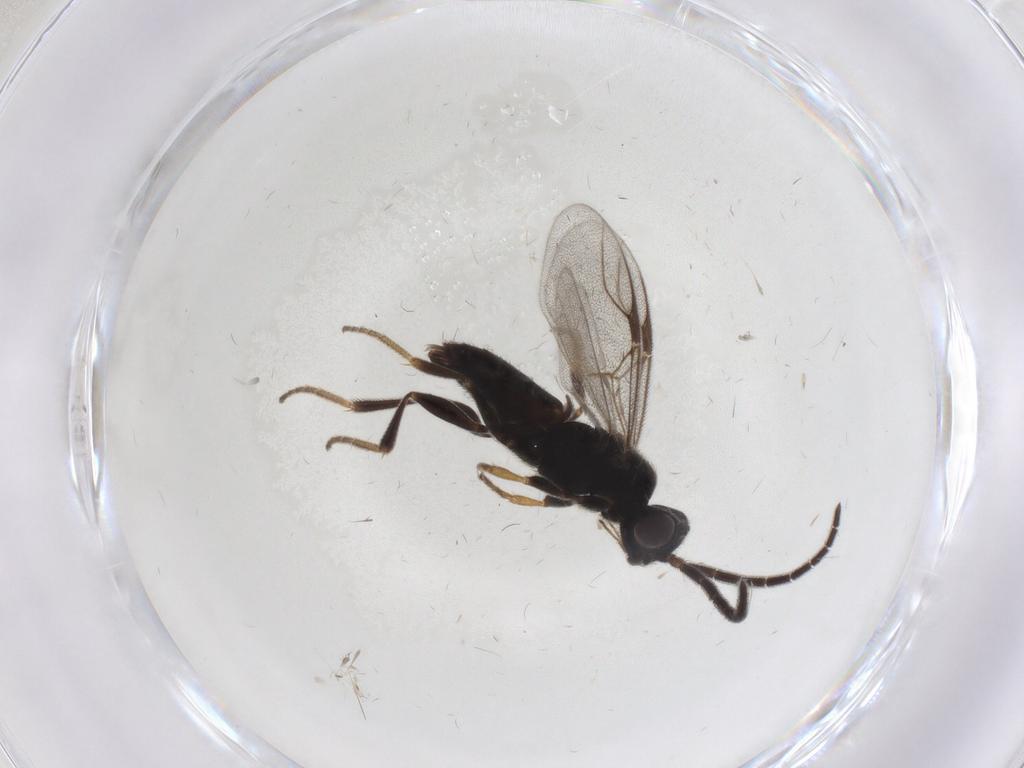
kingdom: Animalia
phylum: Arthropoda
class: Insecta
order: Hymenoptera
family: Dryinidae
